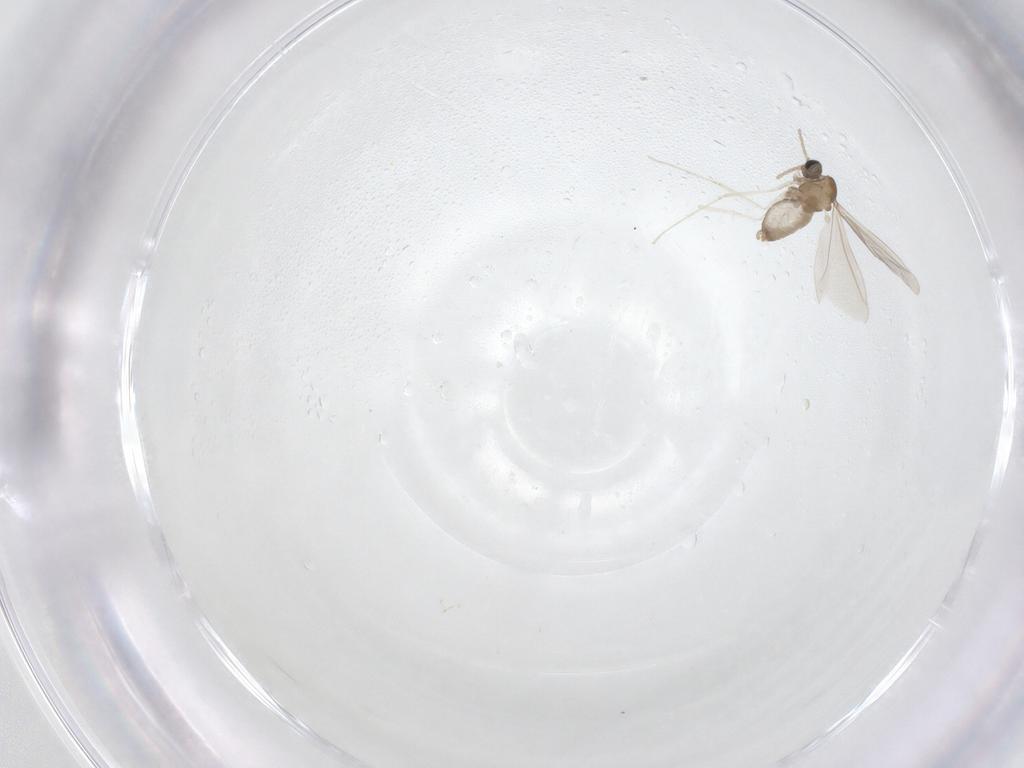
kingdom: Animalia
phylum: Arthropoda
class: Insecta
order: Diptera
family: Cecidomyiidae
